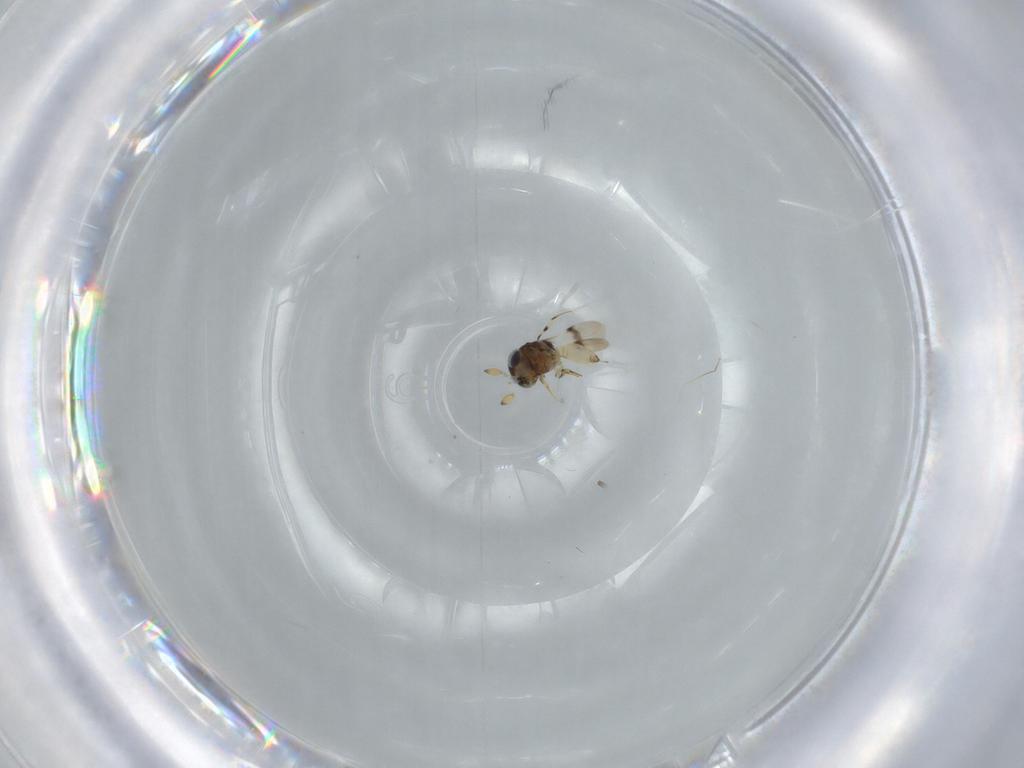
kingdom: Animalia
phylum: Arthropoda
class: Insecta
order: Hymenoptera
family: Scelionidae
